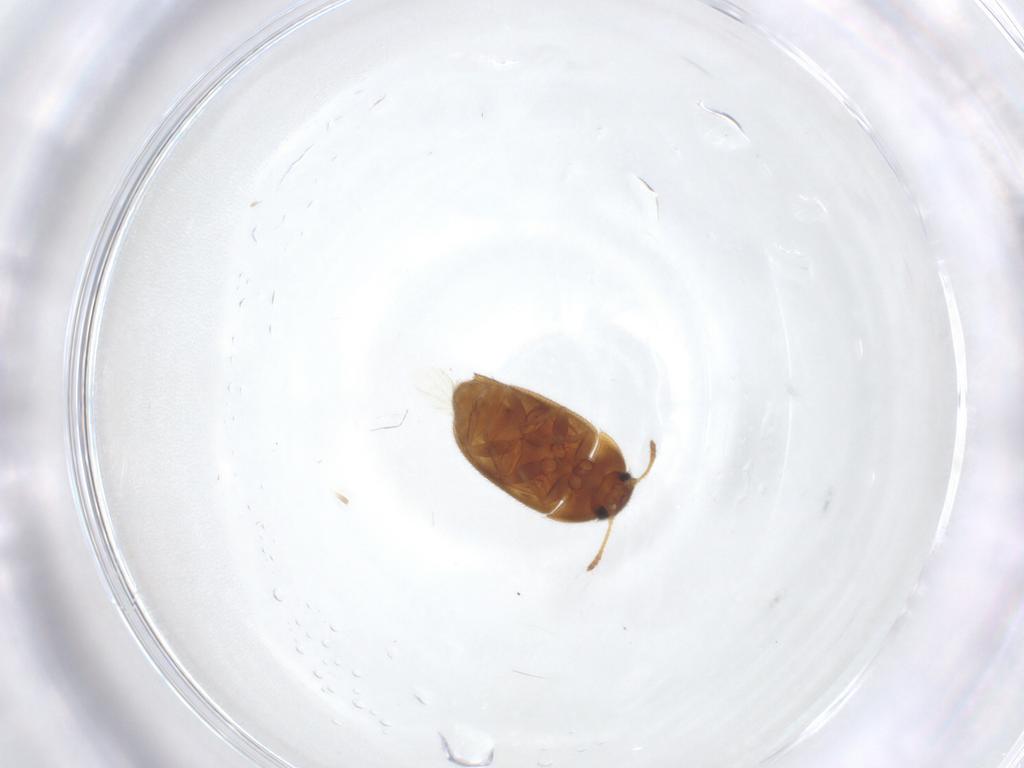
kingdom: Animalia
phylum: Arthropoda
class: Insecta
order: Coleoptera
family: Mycetophagidae
